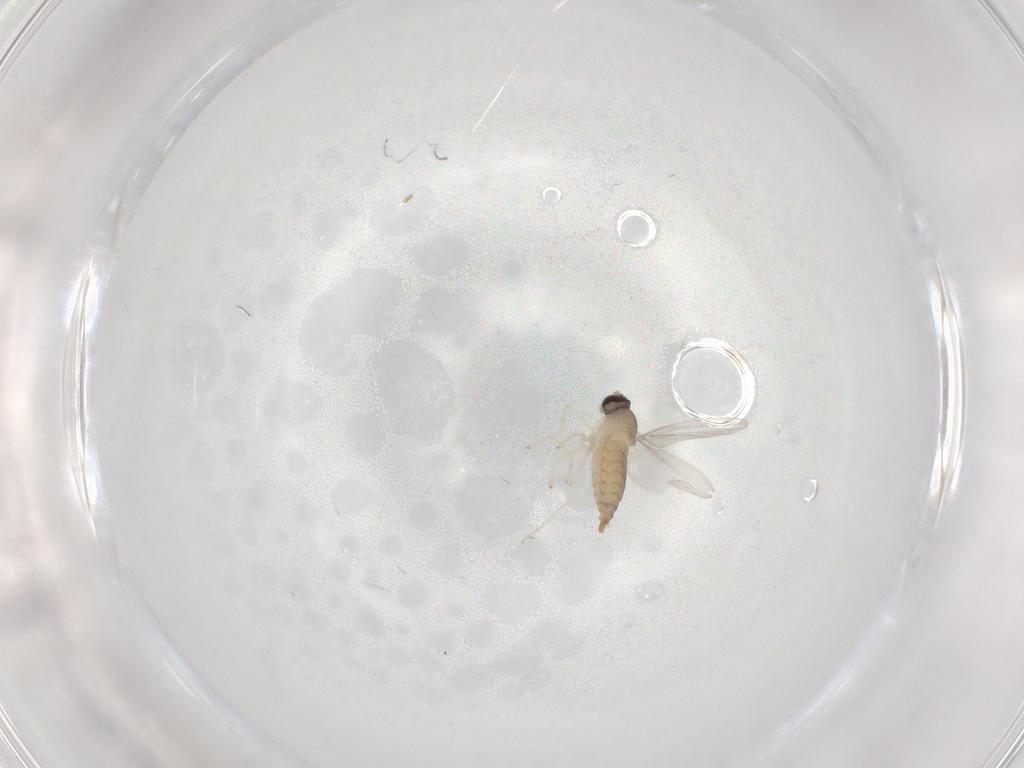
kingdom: Animalia
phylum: Arthropoda
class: Insecta
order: Diptera
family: Cecidomyiidae
